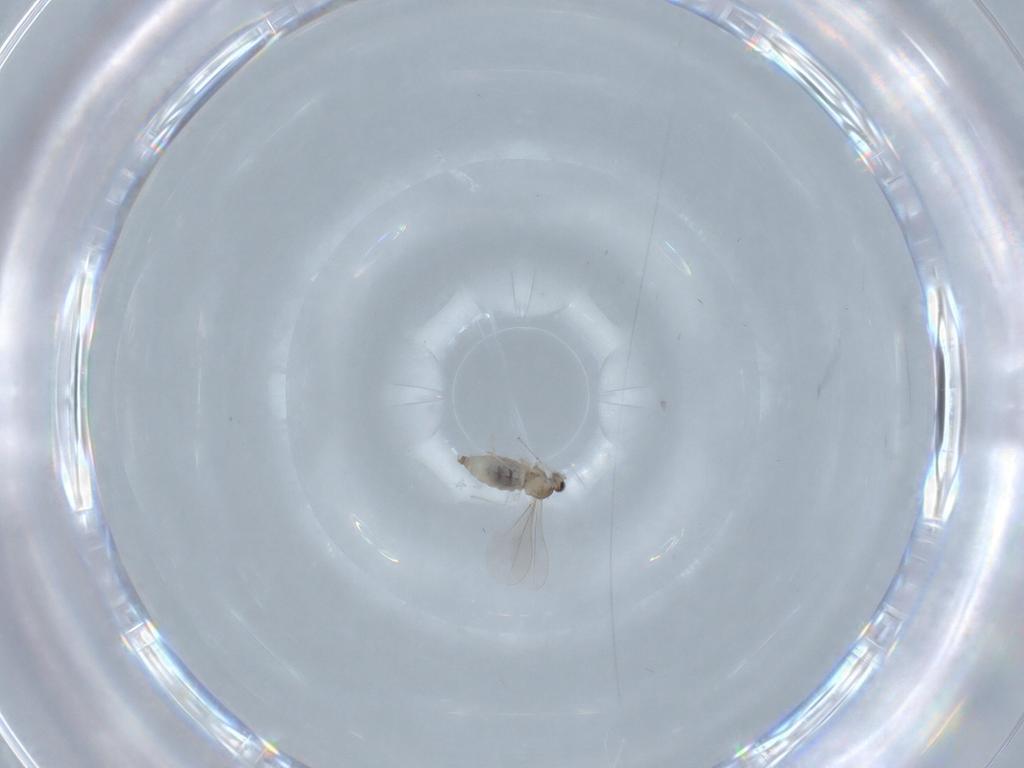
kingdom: Animalia
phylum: Arthropoda
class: Insecta
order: Diptera
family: Cecidomyiidae
